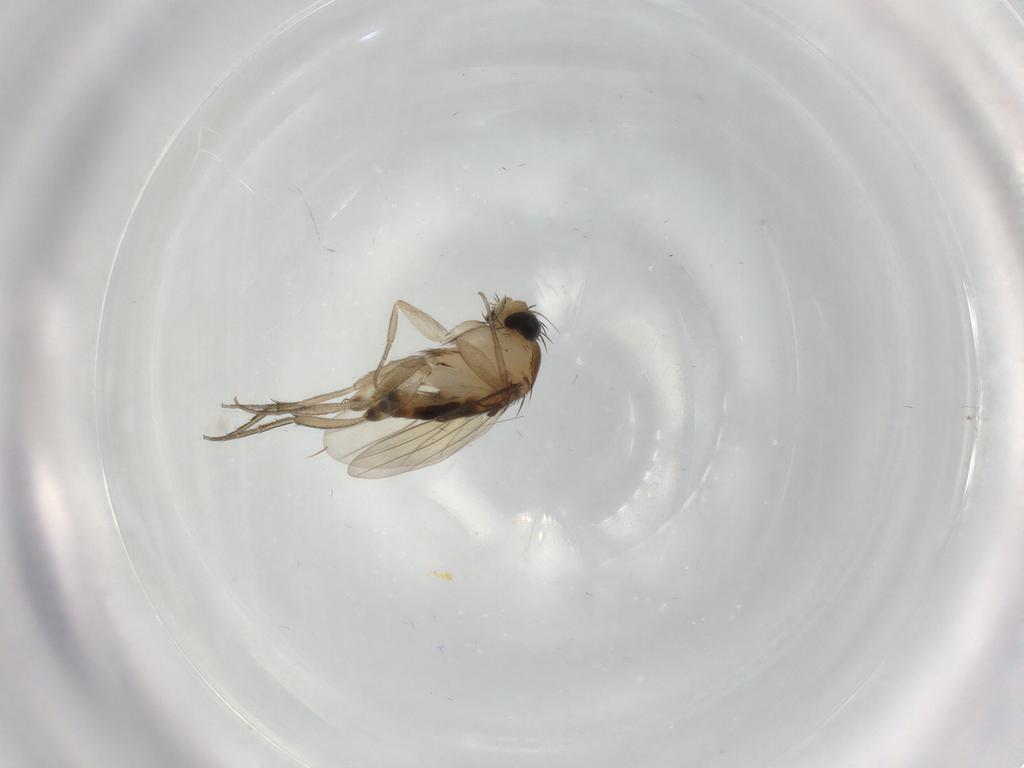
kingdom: Animalia
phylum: Arthropoda
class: Insecta
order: Diptera
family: Phoridae
